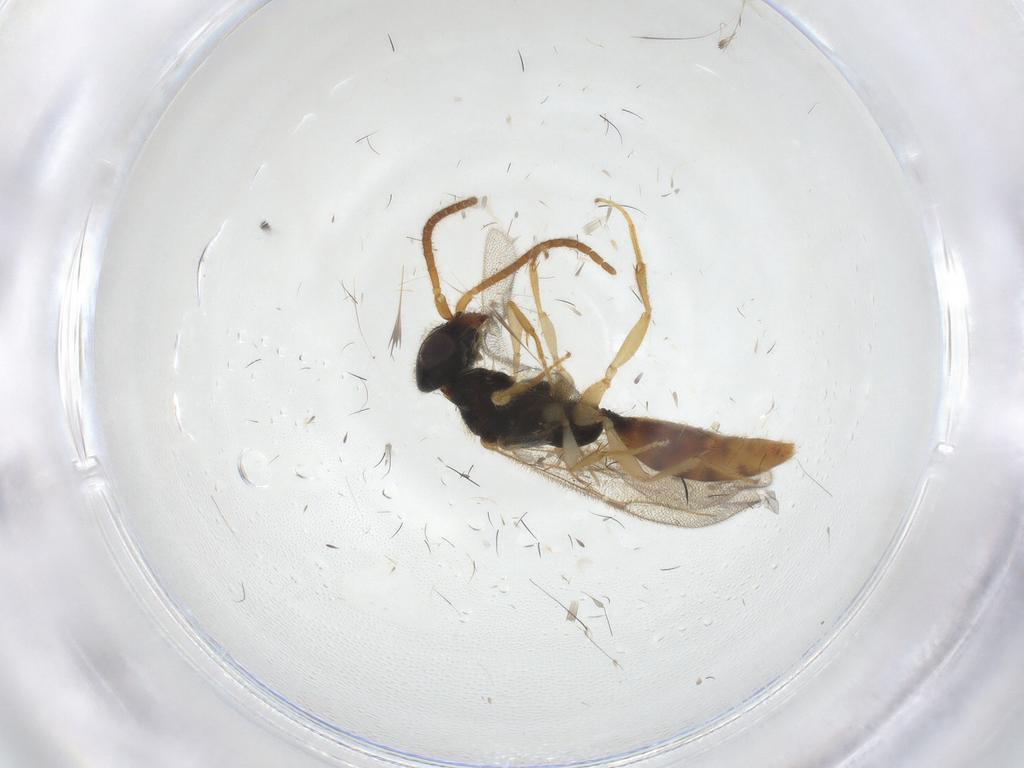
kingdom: Animalia
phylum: Arthropoda
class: Insecta
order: Hymenoptera
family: Bethylidae
